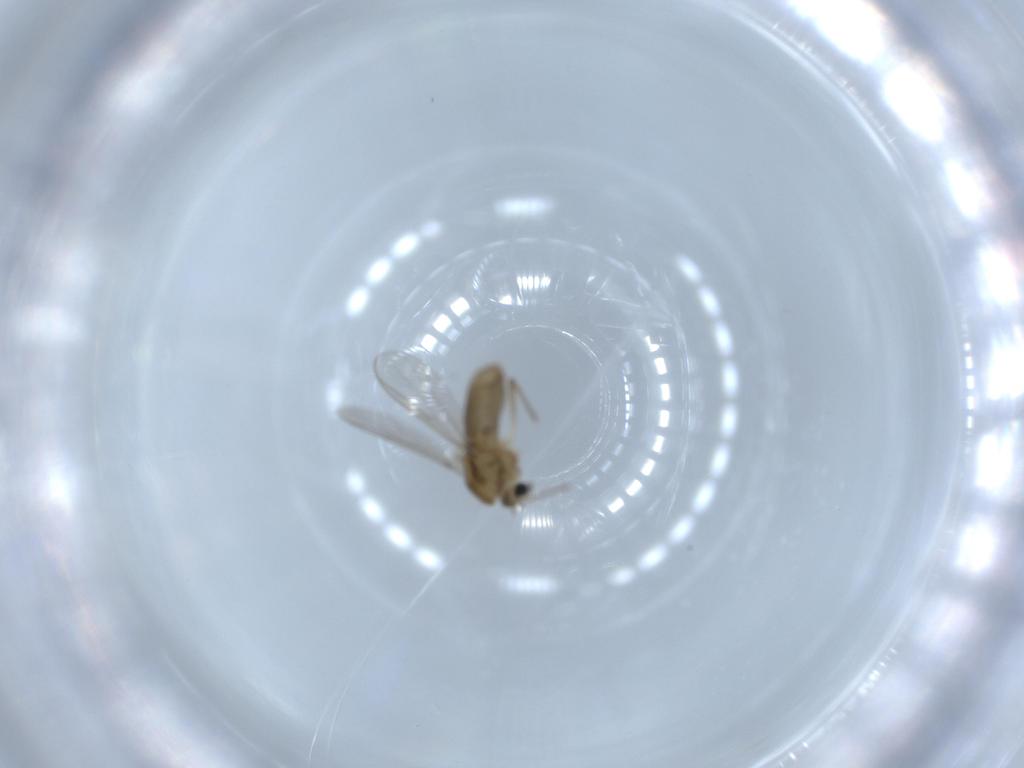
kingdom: Animalia
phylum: Arthropoda
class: Insecta
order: Diptera
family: Chironomidae
